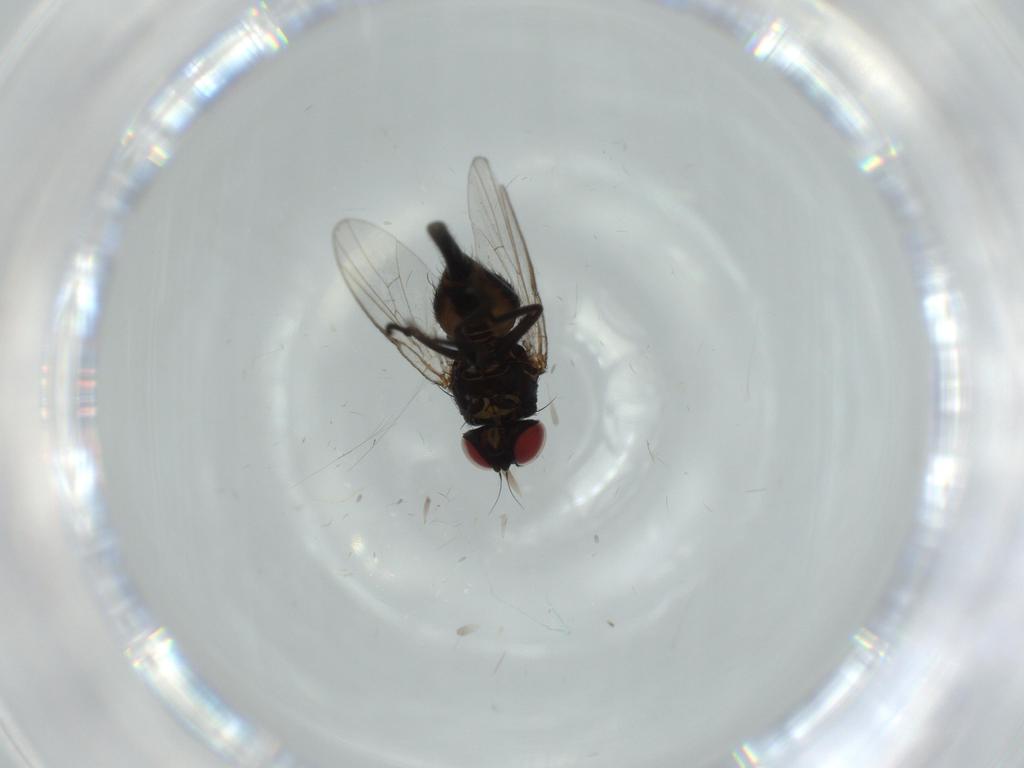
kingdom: Animalia
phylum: Arthropoda
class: Insecta
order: Diptera
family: Agromyzidae
